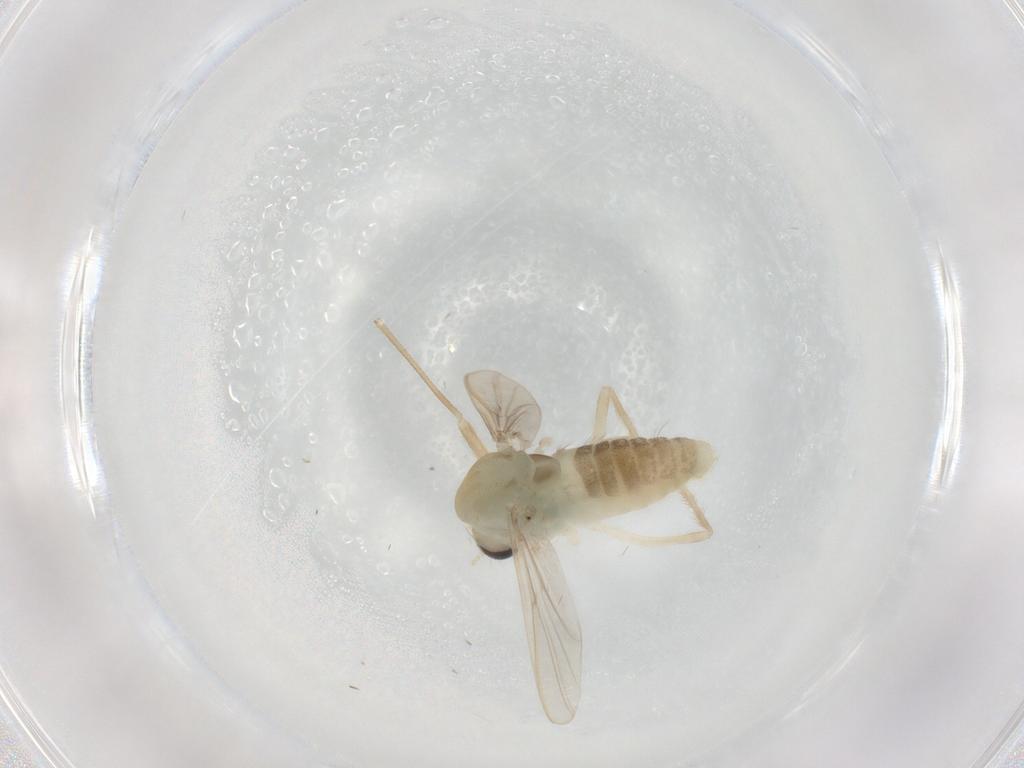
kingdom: Animalia
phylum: Arthropoda
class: Insecta
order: Diptera
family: Chironomidae
